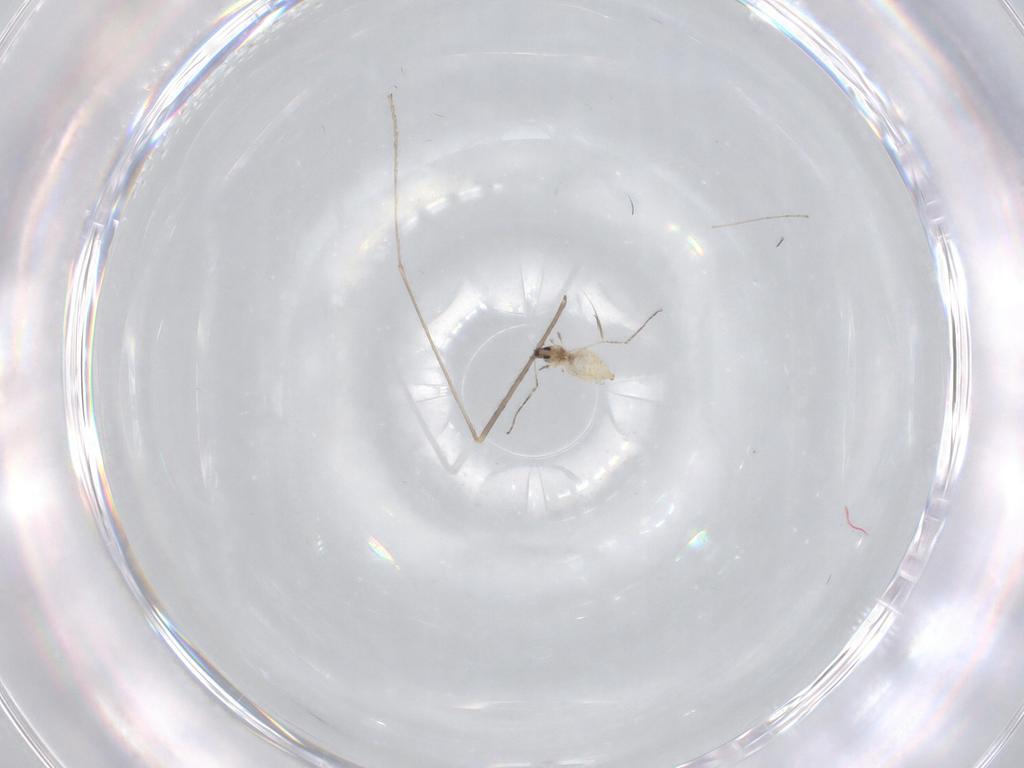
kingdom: Animalia
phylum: Arthropoda
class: Insecta
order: Diptera
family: Cecidomyiidae
